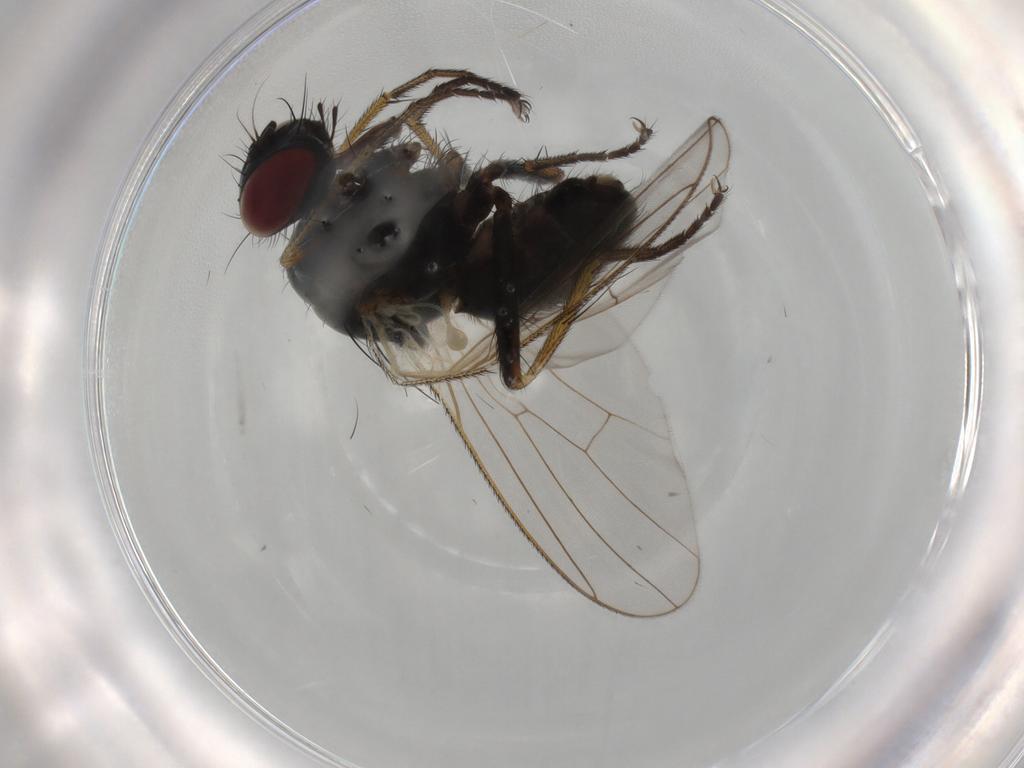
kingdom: Animalia
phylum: Arthropoda
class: Insecta
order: Diptera
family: Muscidae
